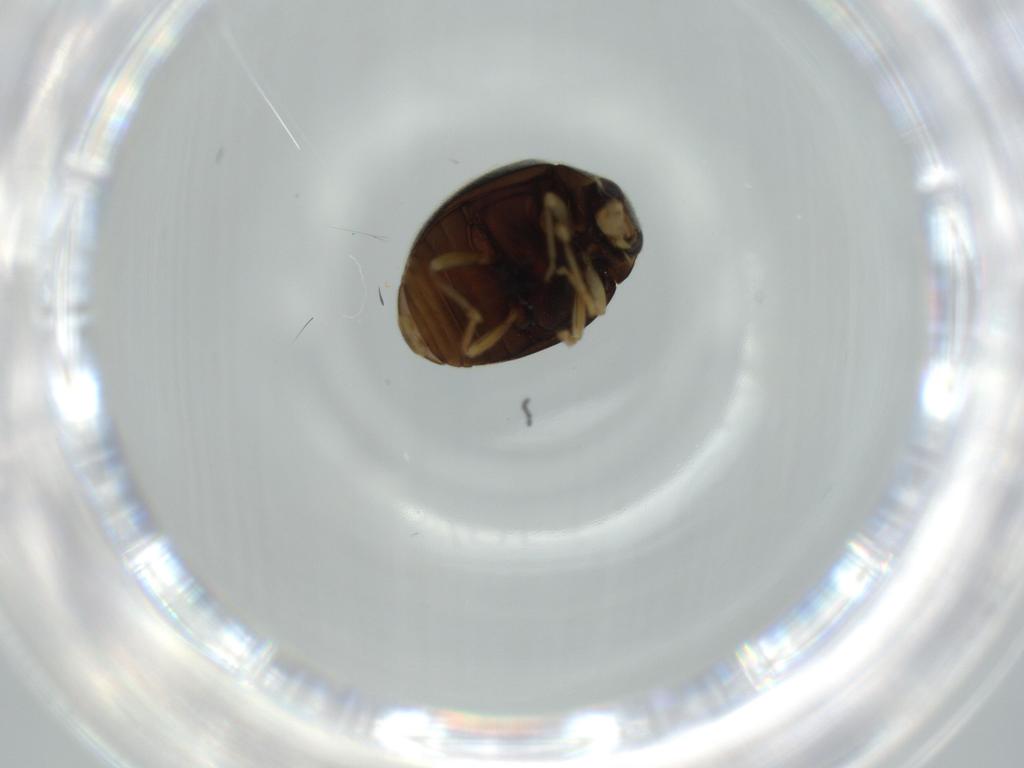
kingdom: Animalia
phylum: Arthropoda
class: Insecta
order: Coleoptera
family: Coccinellidae
